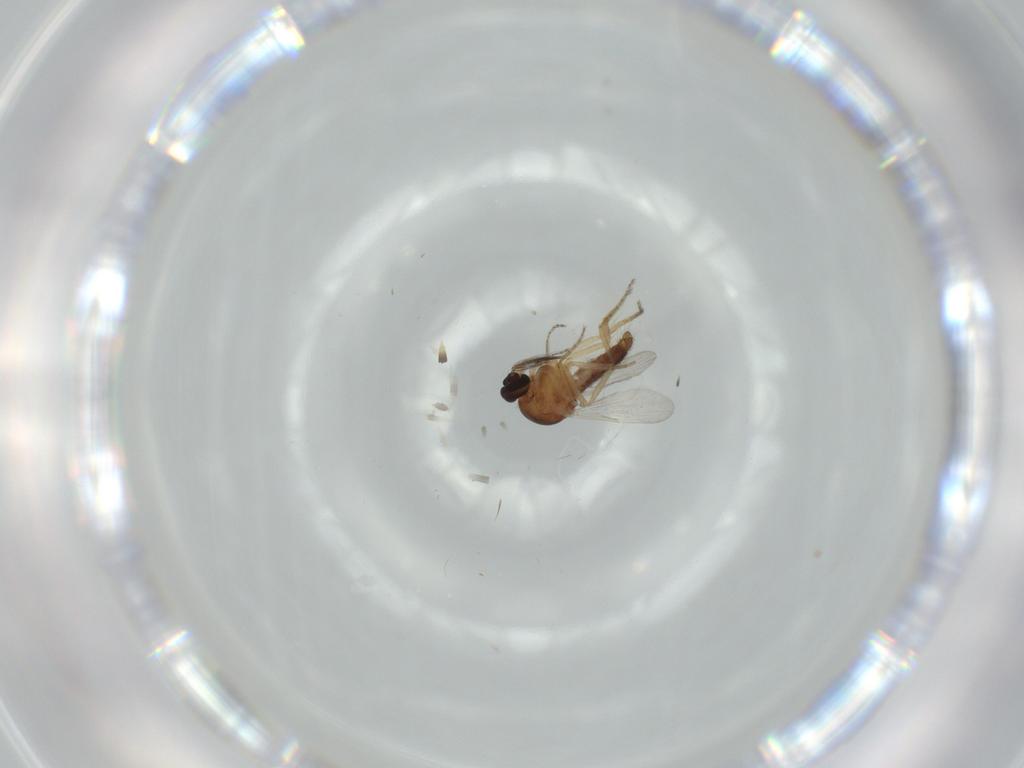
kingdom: Animalia
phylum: Arthropoda
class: Insecta
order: Diptera
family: Ceratopogonidae
